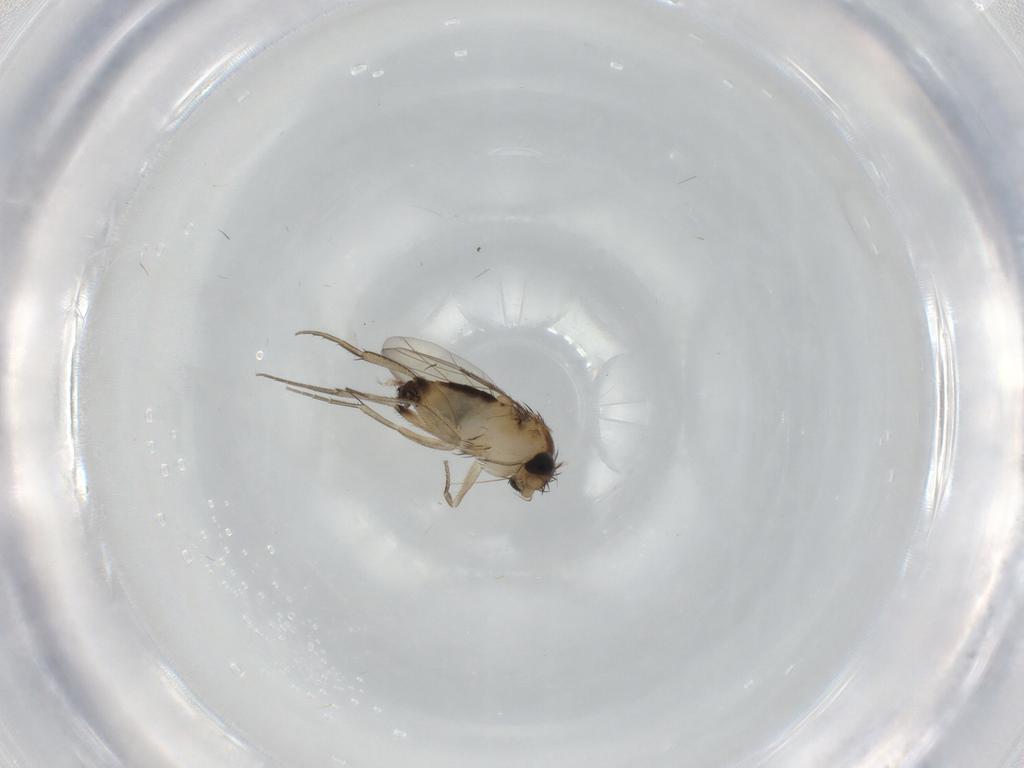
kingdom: Animalia
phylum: Arthropoda
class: Insecta
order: Diptera
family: Phoridae
